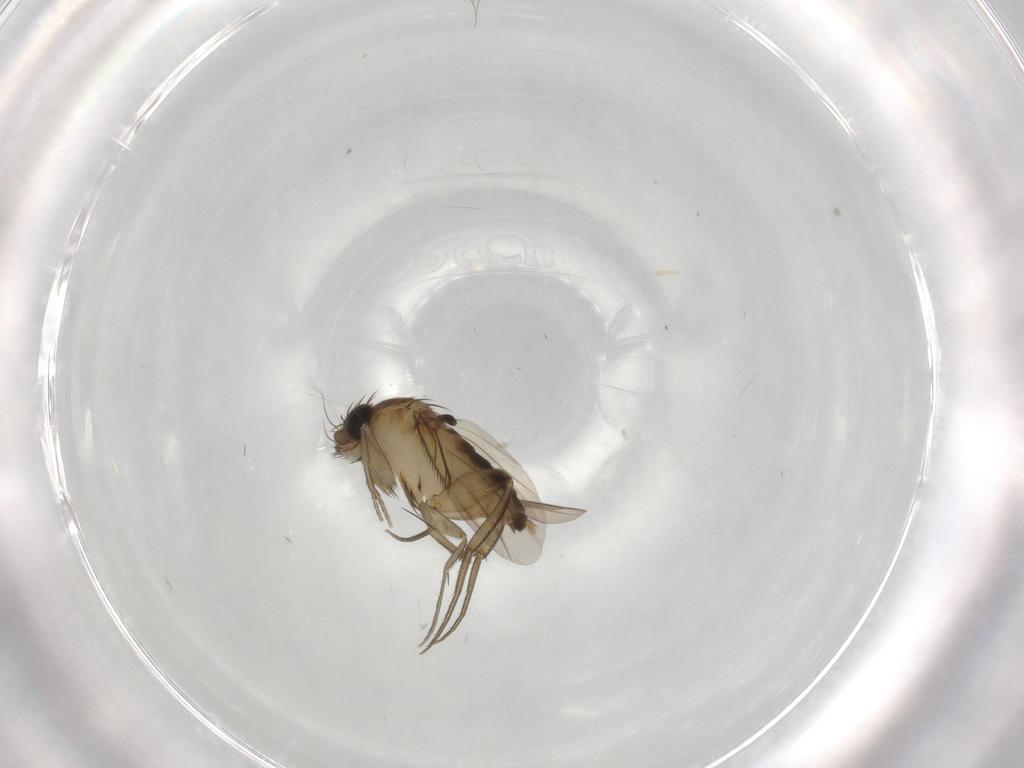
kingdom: Animalia
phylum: Arthropoda
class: Insecta
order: Diptera
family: Phoridae
